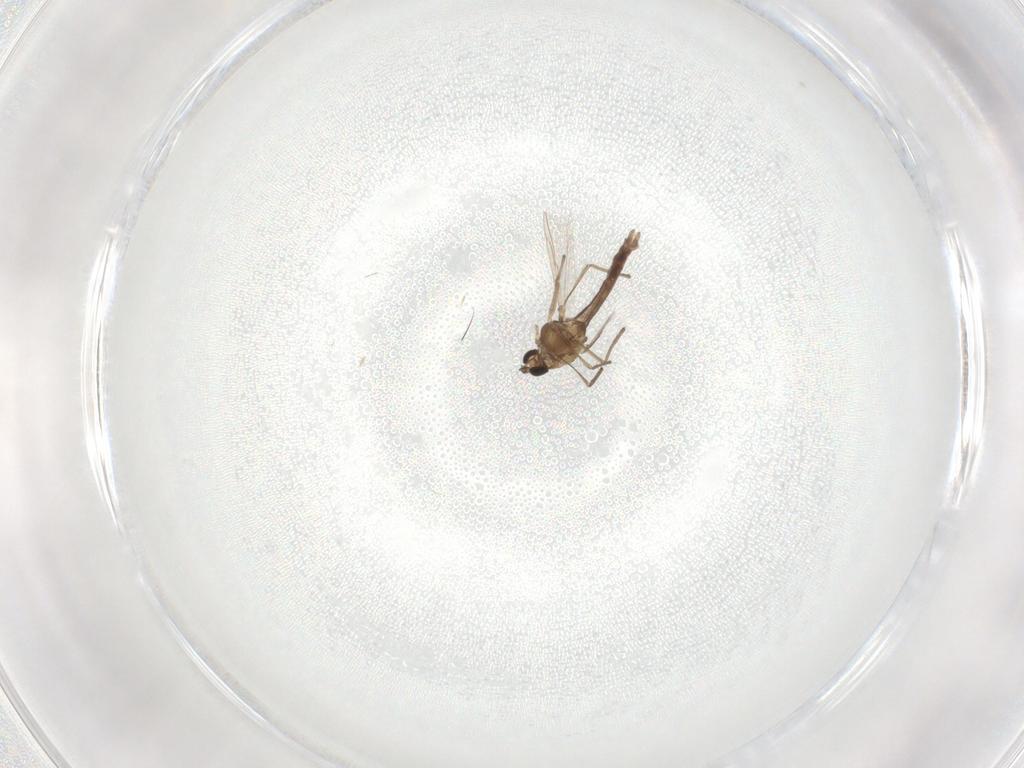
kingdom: Animalia
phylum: Arthropoda
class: Insecta
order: Diptera
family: Chironomidae
